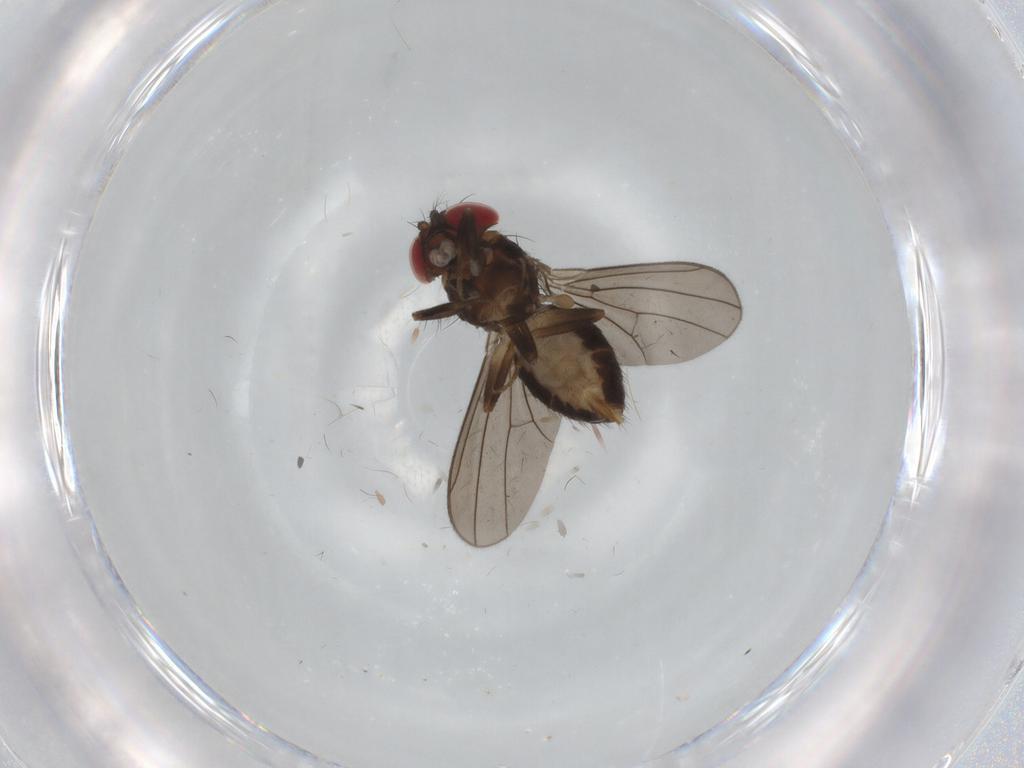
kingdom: Animalia
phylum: Arthropoda
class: Insecta
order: Diptera
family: Drosophilidae
